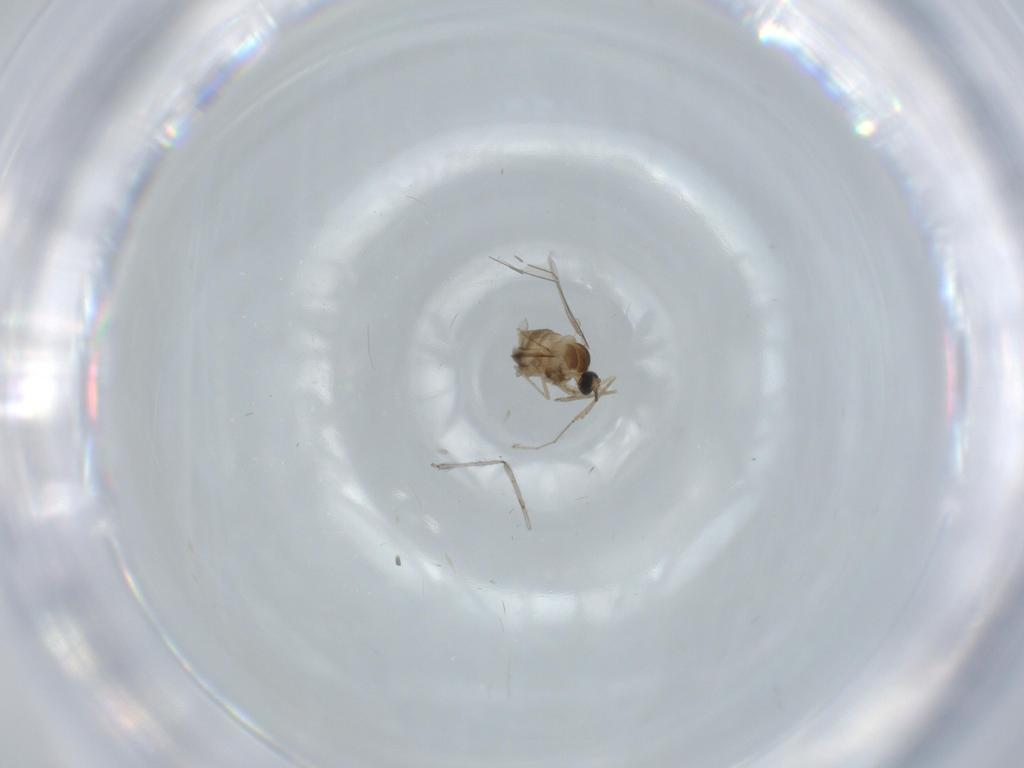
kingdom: Animalia
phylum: Arthropoda
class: Insecta
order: Diptera
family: Cecidomyiidae
